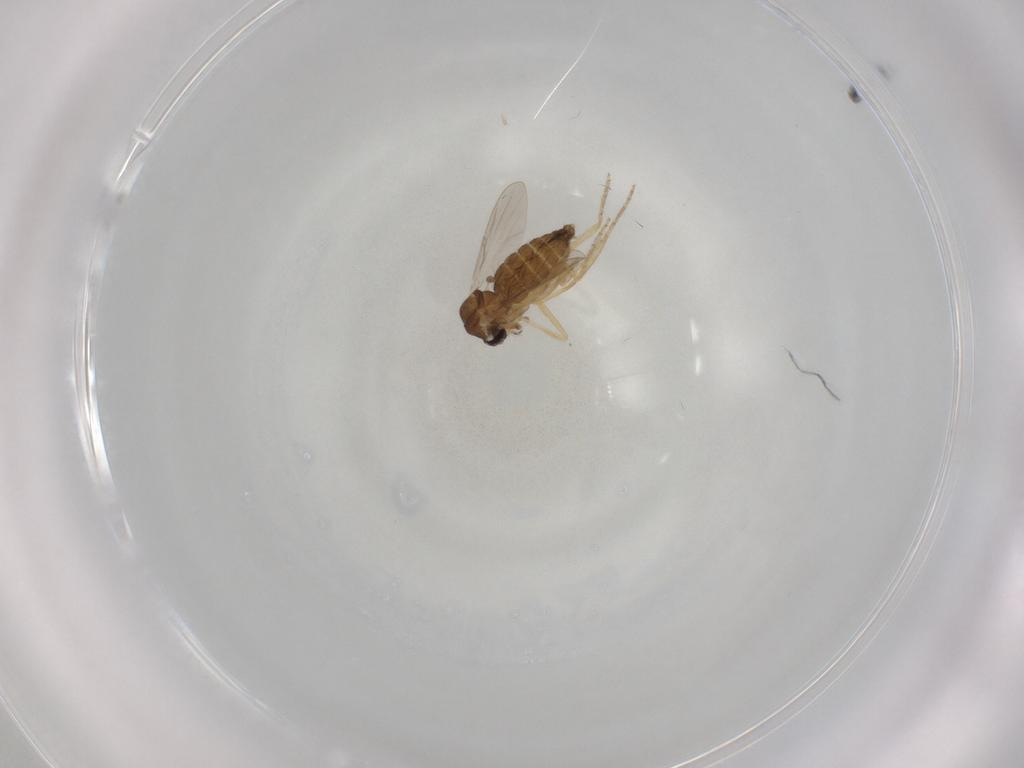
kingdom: Animalia
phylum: Arthropoda
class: Insecta
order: Diptera
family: Ceratopogonidae
